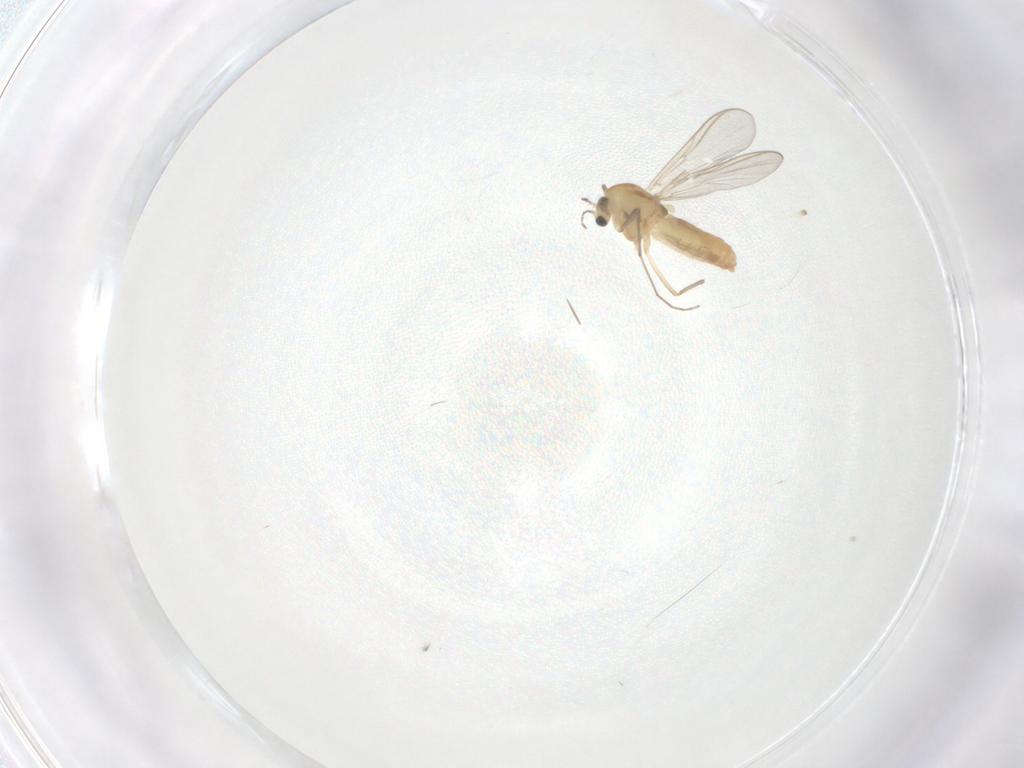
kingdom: Animalia
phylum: Arthropoda
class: Insecta
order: Diptera
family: Chironomidae
